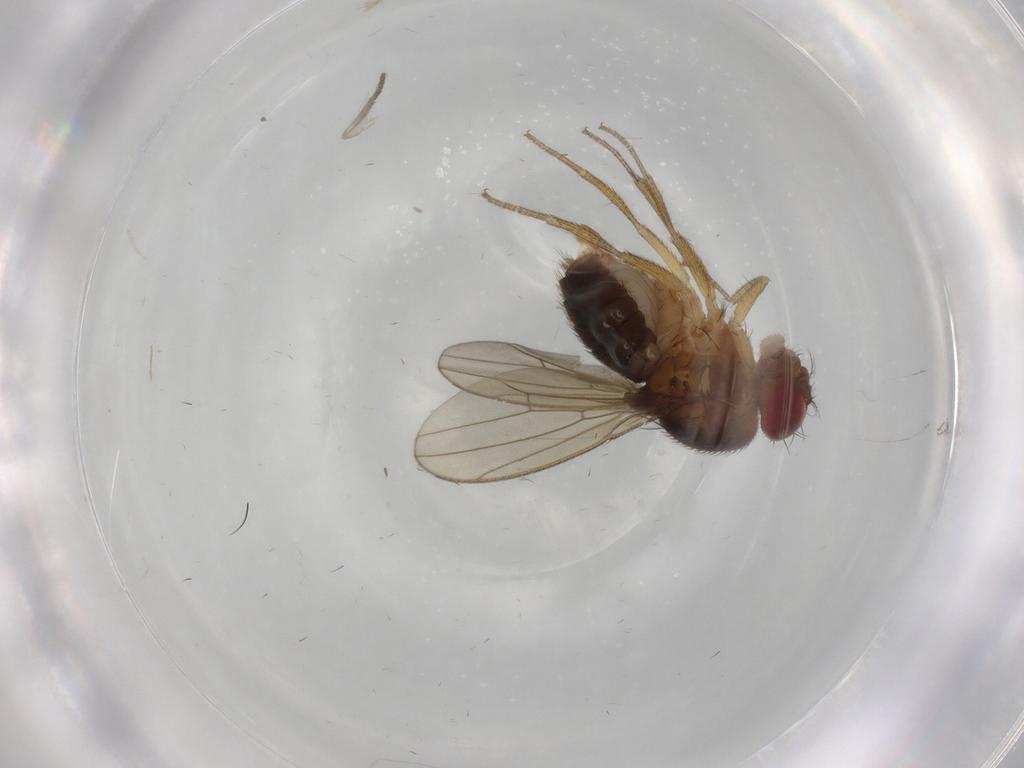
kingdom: Animalia
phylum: Arthropoda
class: Insecta
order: Diptera
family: Drosophilidae
